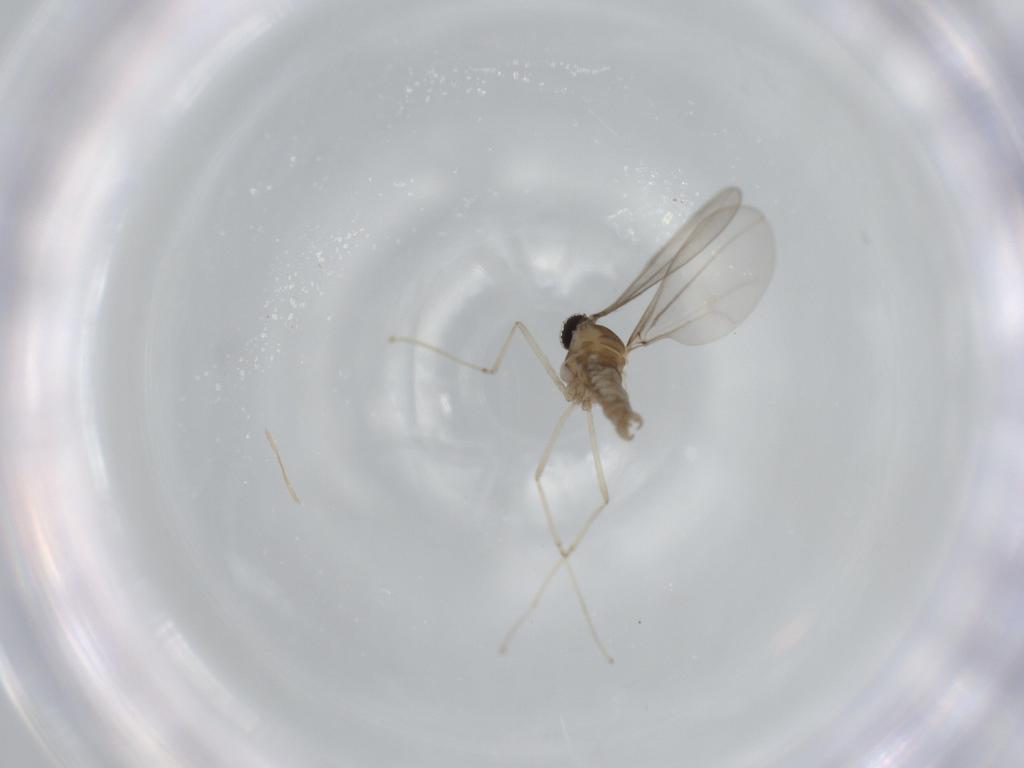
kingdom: Animalia
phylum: Arthropoda
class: Insecta
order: Diptera
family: Cecidomyiidae
